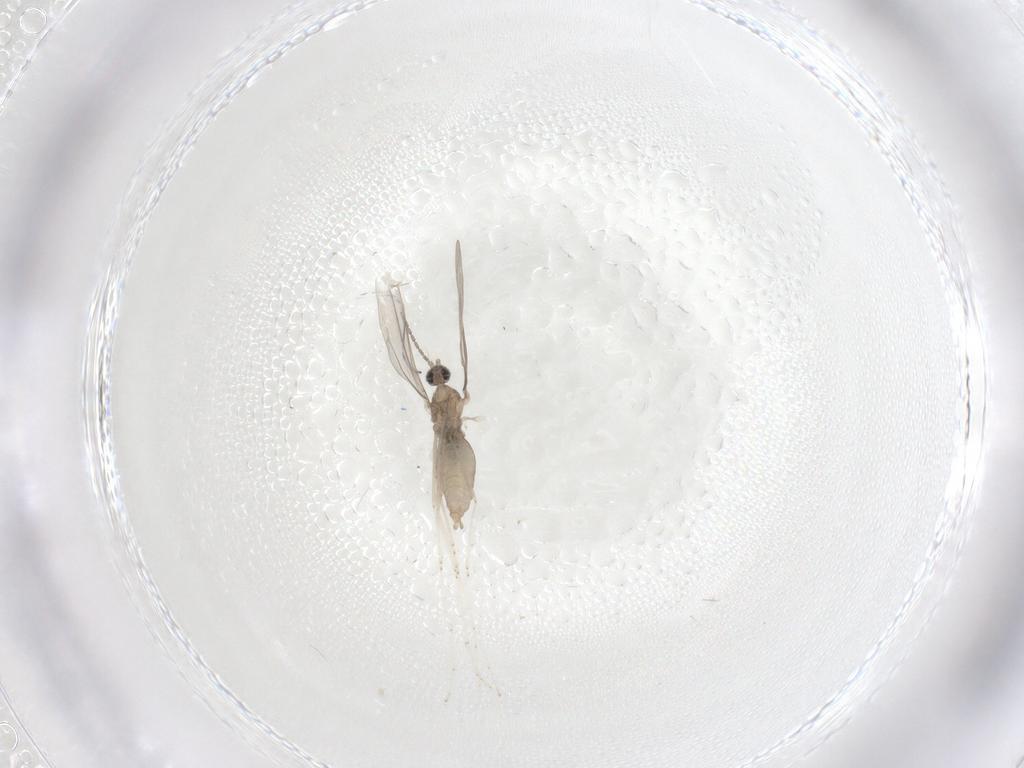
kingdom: Animalia
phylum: Arthropoda
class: Insecta
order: Diptera
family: Cecidomyiidae
